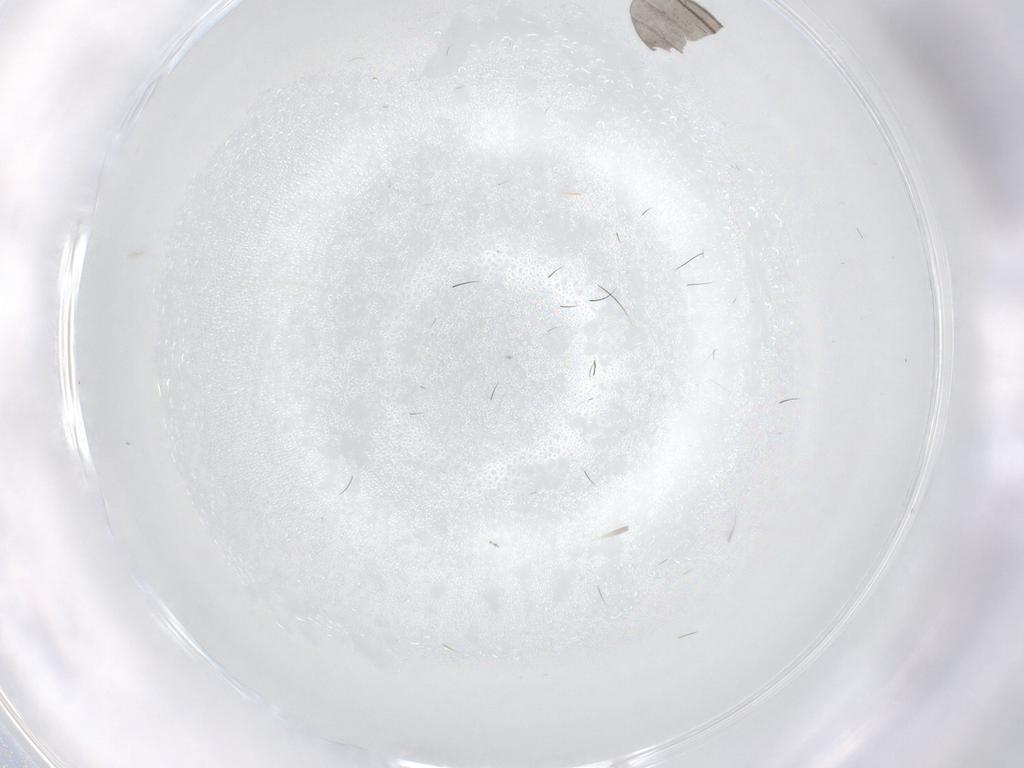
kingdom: Animalia
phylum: Arthropoda
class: Insecta
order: Diptera
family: Sciaridae
